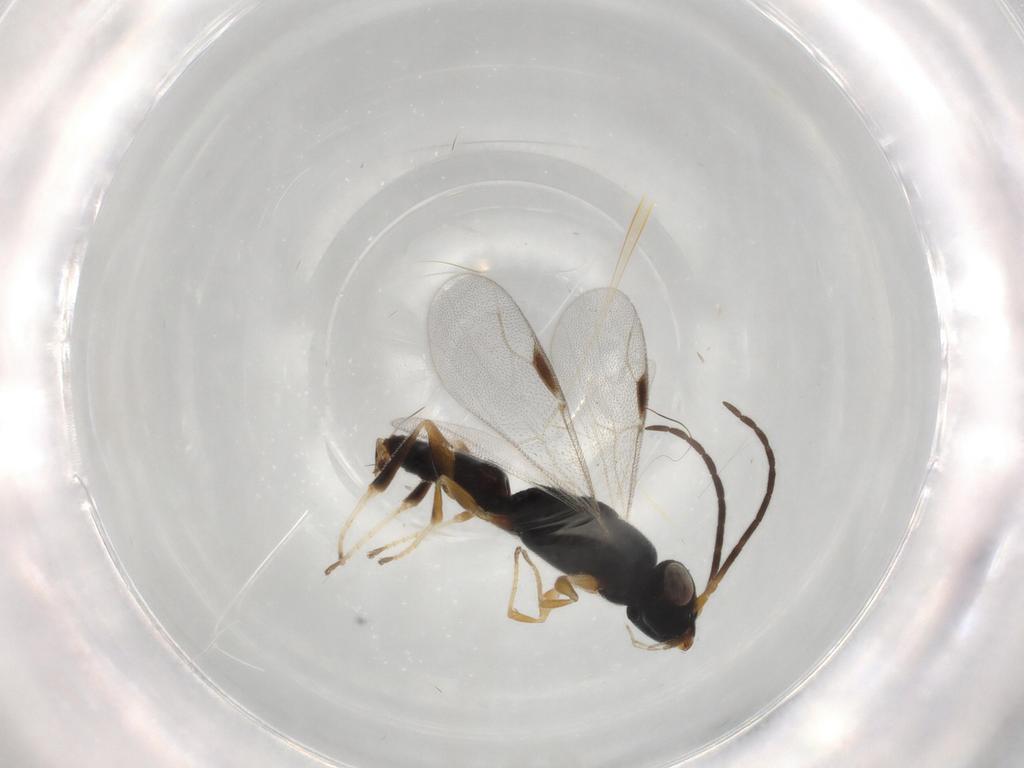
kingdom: Animalia
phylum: Arthropoda
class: Insecta
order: Hymenoptera
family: Dryinidae
